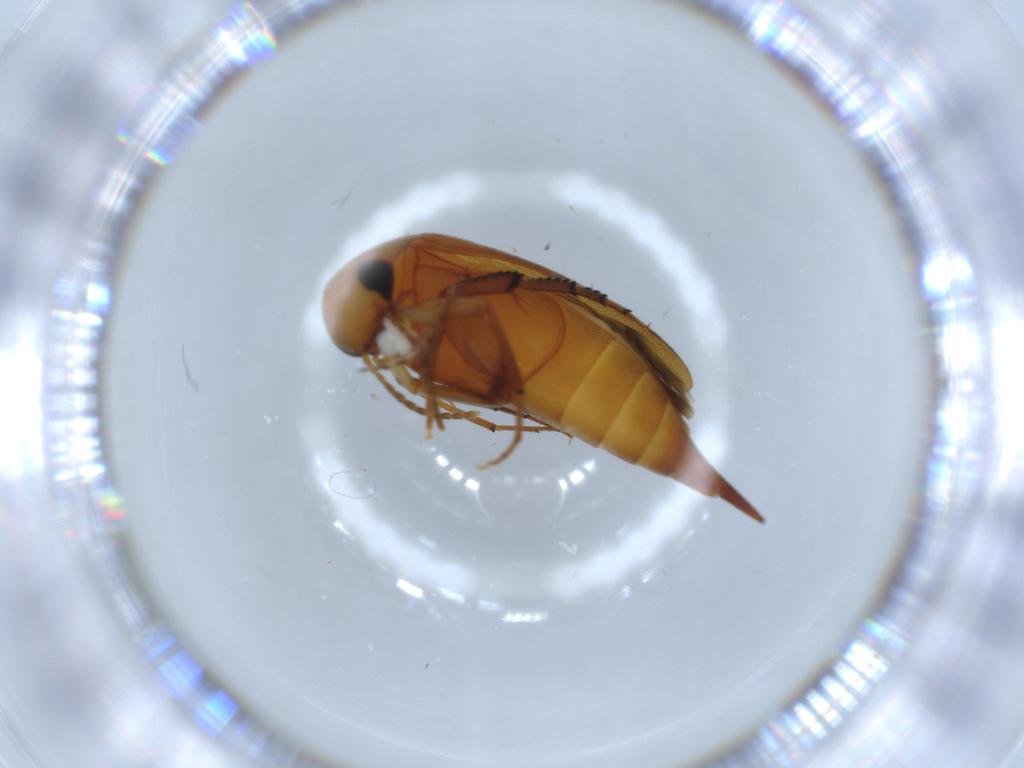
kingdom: Animalia
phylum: Arthropoda
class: Insecta
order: Coleoptera
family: Mordellidae
